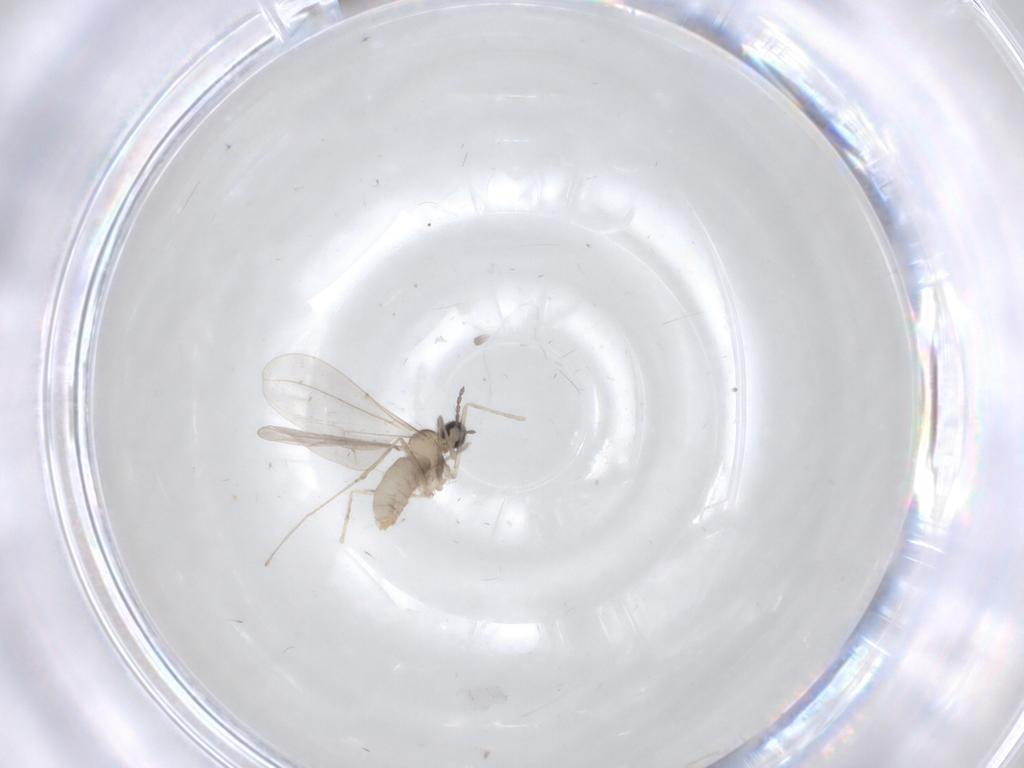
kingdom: Animalia
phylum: Arthropoda
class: Insecta
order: Diptera
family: Cecidomyiidae
